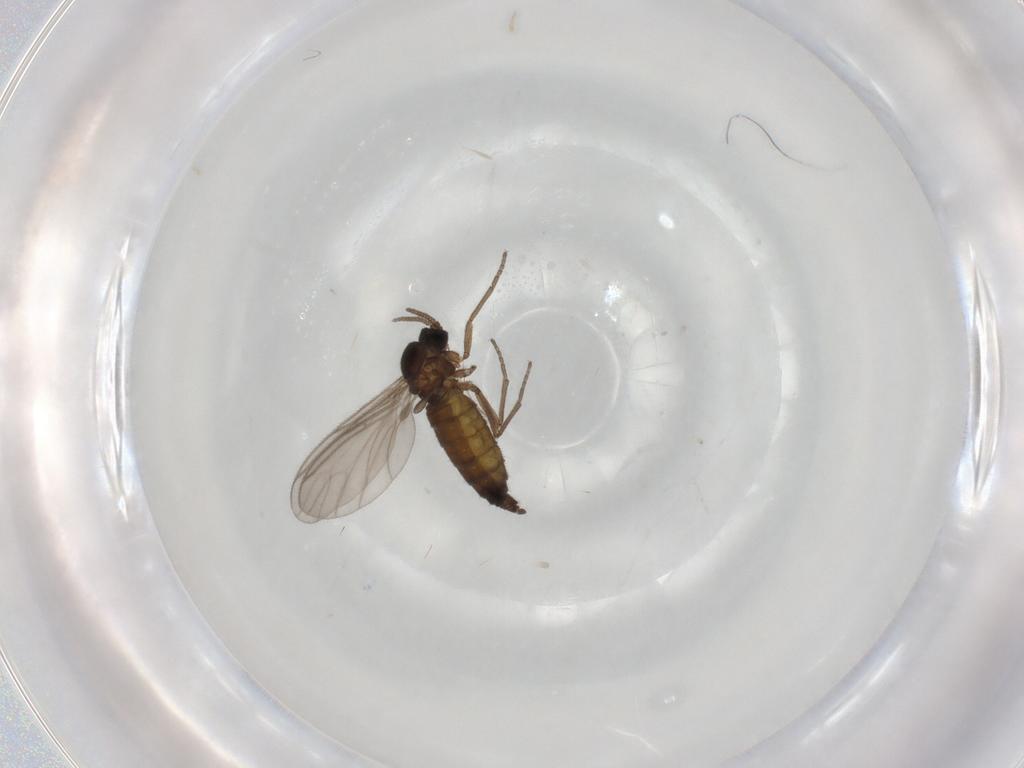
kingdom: Animalia
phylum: Arthropoda
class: Insecta
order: Diptera
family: Sciaridae
